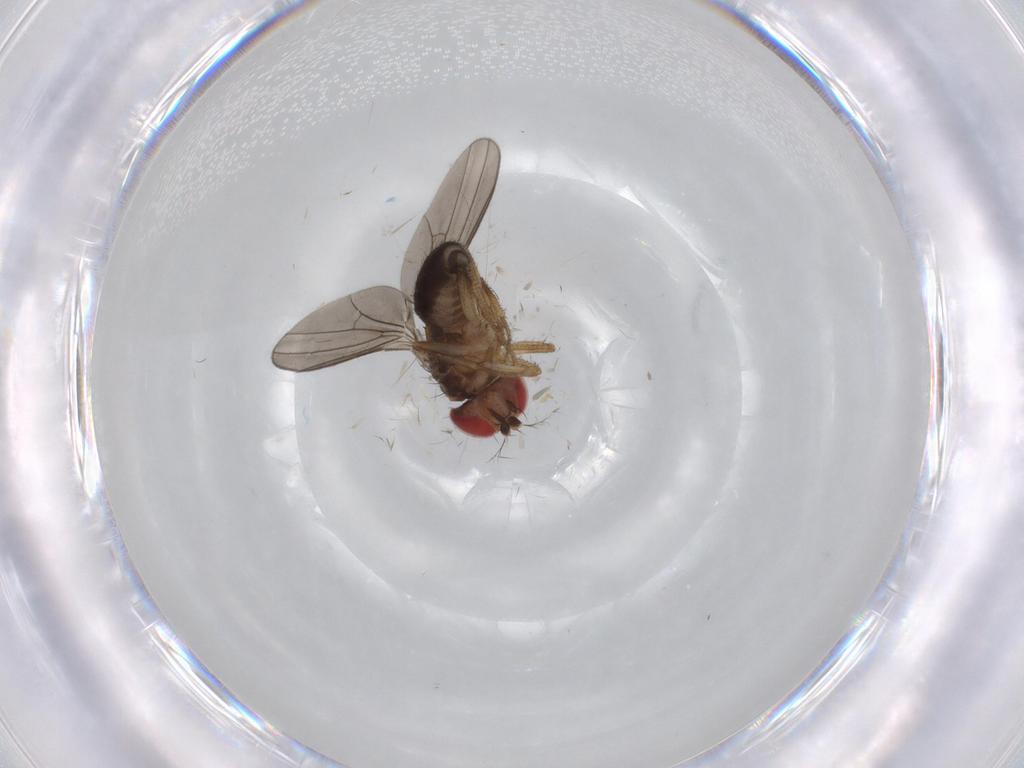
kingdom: Animalia
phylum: Arthropoda
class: Insecta
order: Diptera
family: Drosophilidae
